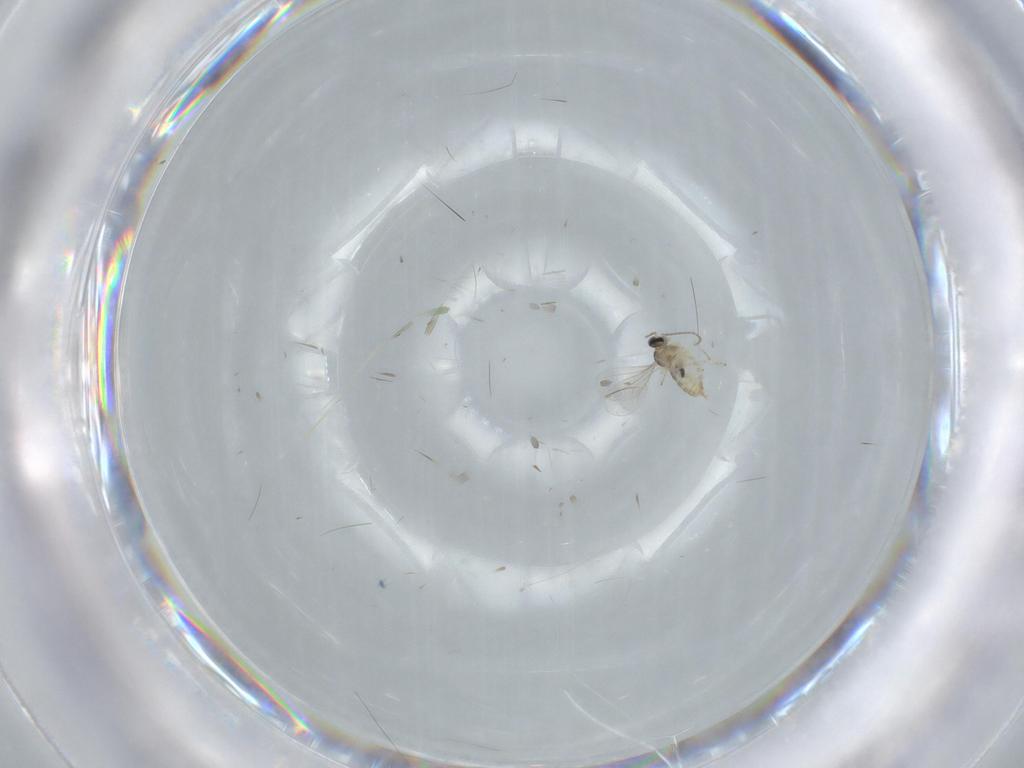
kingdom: Animalia
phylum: Arthropoda
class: Insecta
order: Diptera
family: Cecidomyiidae
